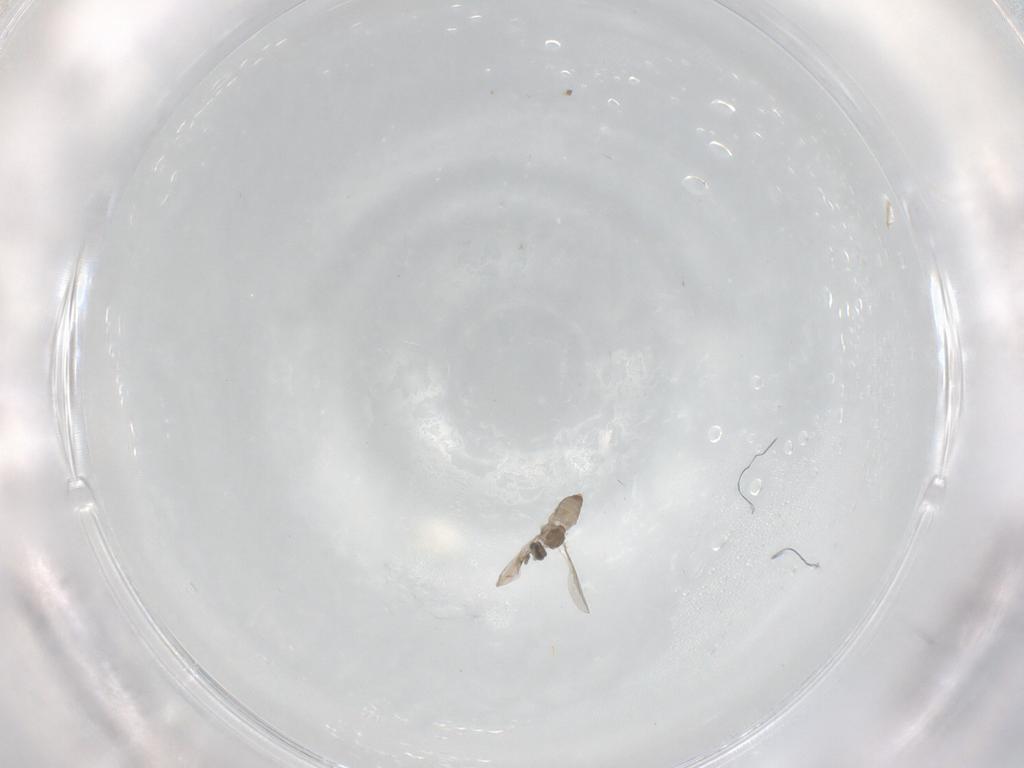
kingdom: Animalia
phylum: Arthropoda
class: Insecta
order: Diptera
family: Cecidomyiidae
